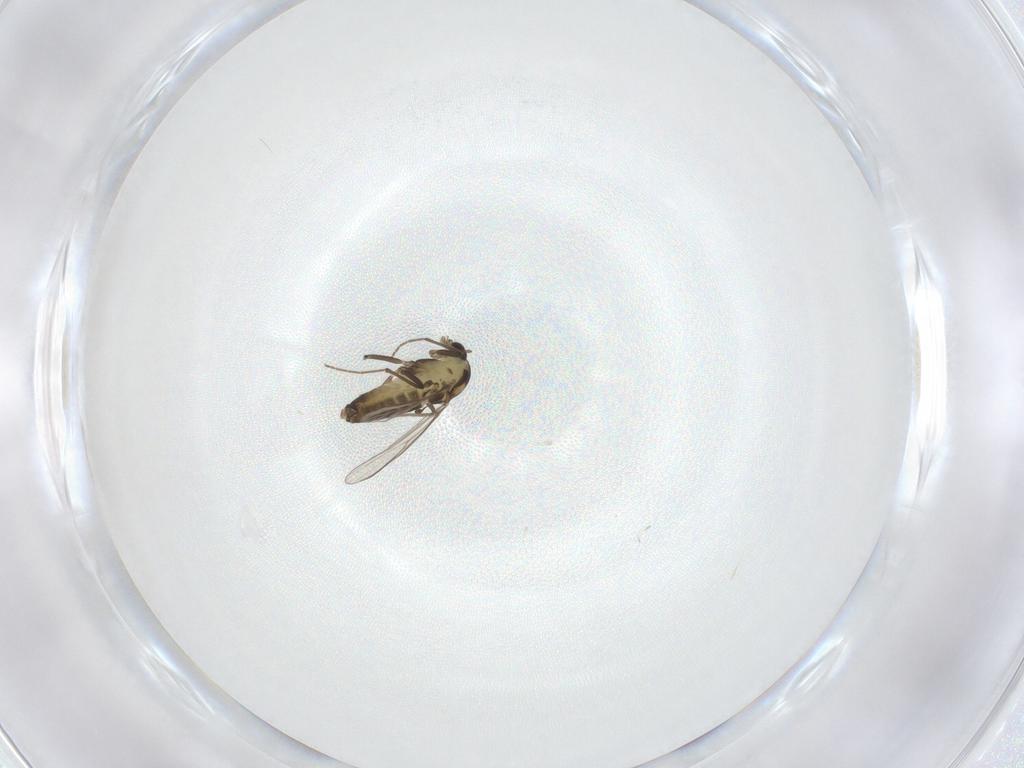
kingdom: Animalia
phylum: Arthropoda
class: Insecta
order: Diptera
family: Chironomidae
